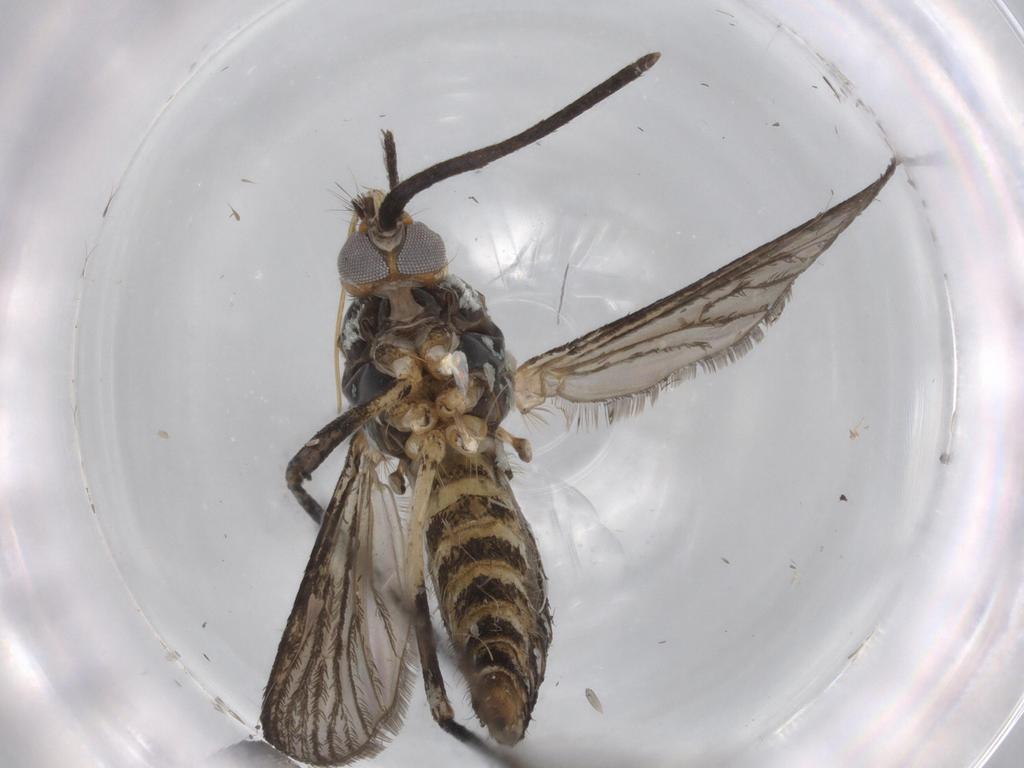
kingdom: Animalia
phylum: Arthropoda
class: Insecta
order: Diptera
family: Culicidae
